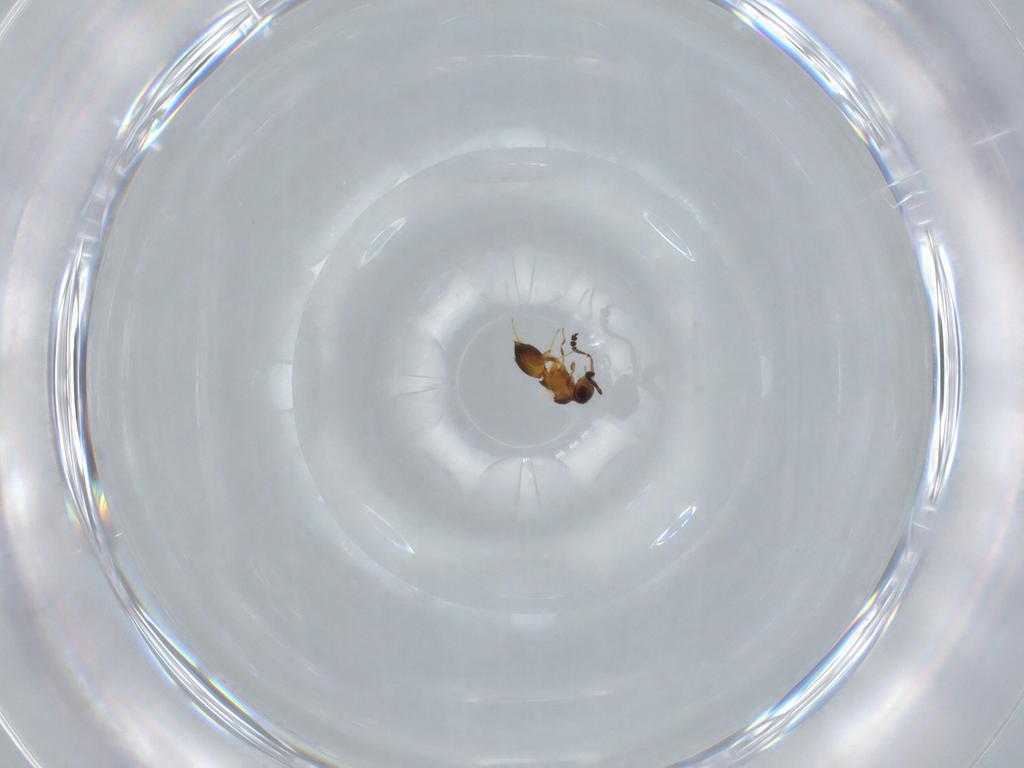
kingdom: Animalia
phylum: Arthropoda
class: Insecta
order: Hymenoptera
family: Ceraphronidae
